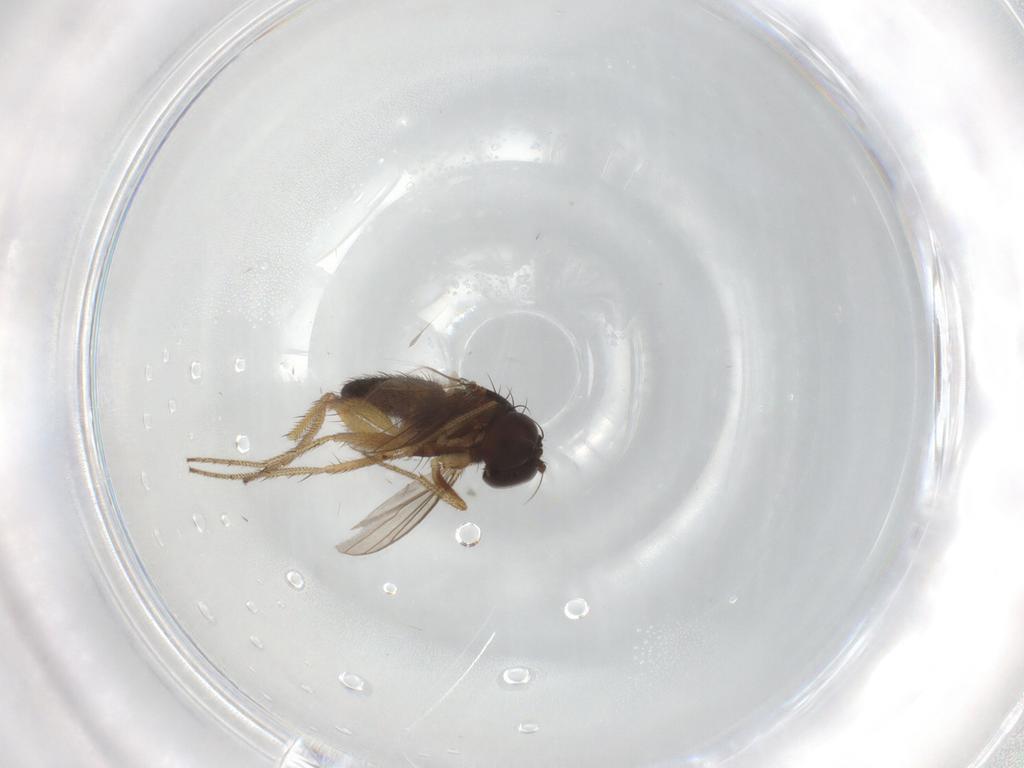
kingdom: Animalia
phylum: Arthropoda
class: Insecta
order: Diptera
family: Dolichopodidae
